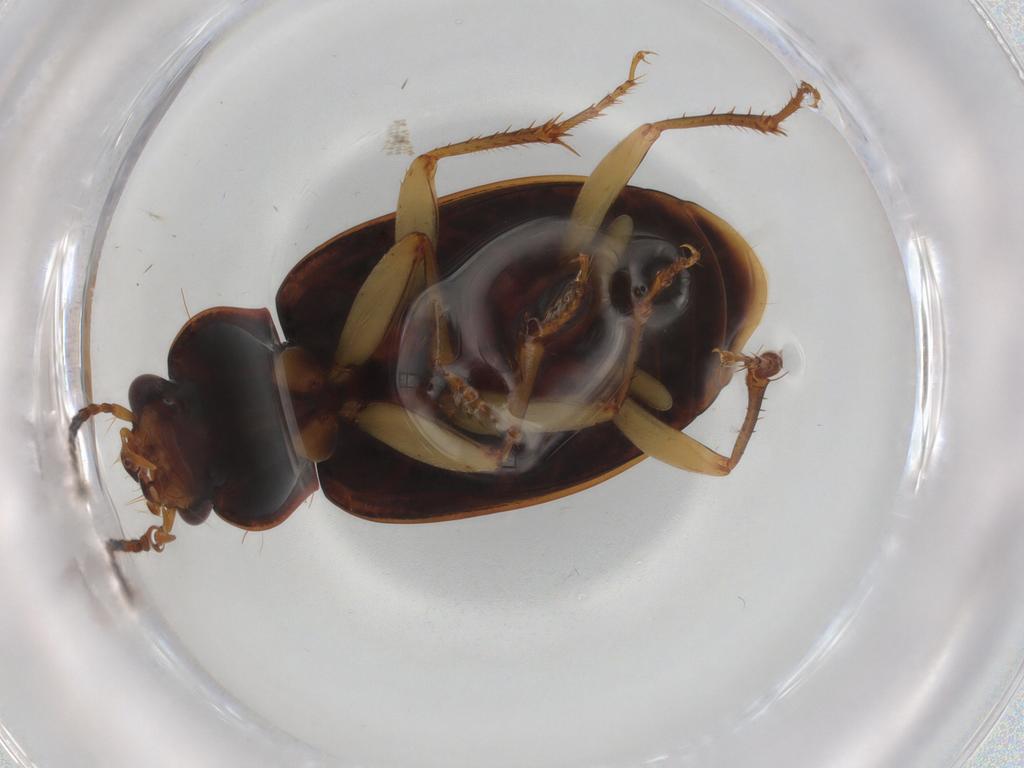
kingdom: Animalia
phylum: Arthropoda
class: Insecta
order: Coleoptera
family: Carabidae
